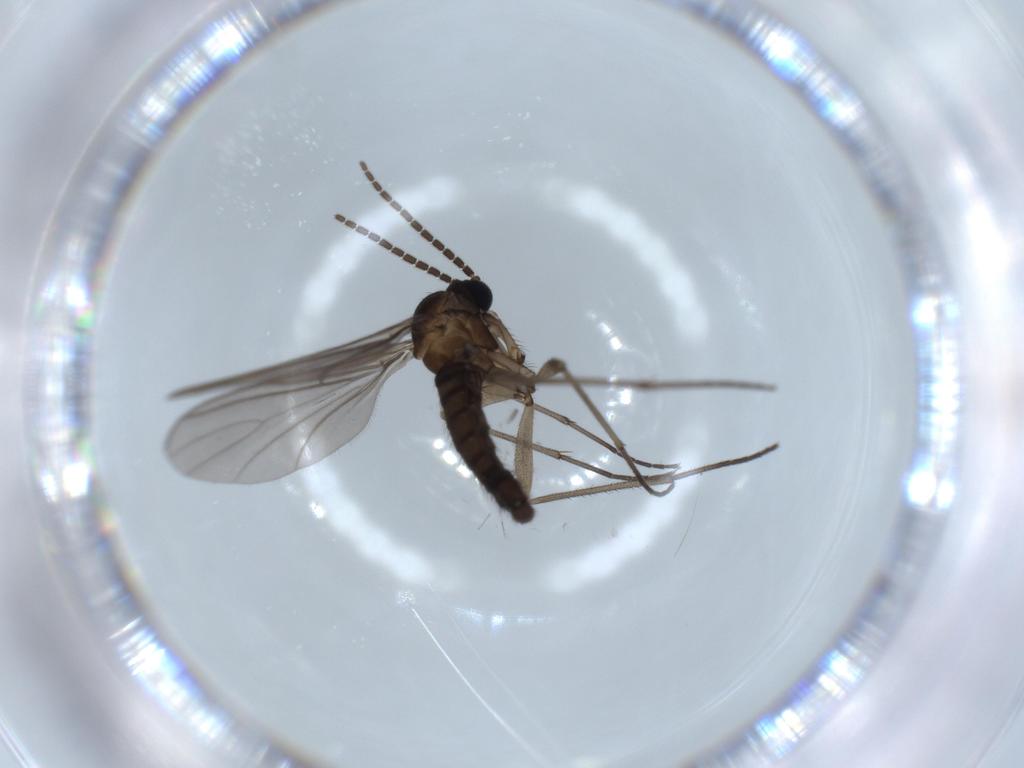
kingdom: Animalia
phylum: Arthropoda
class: Insecta
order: Diptera
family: Sciaridae
